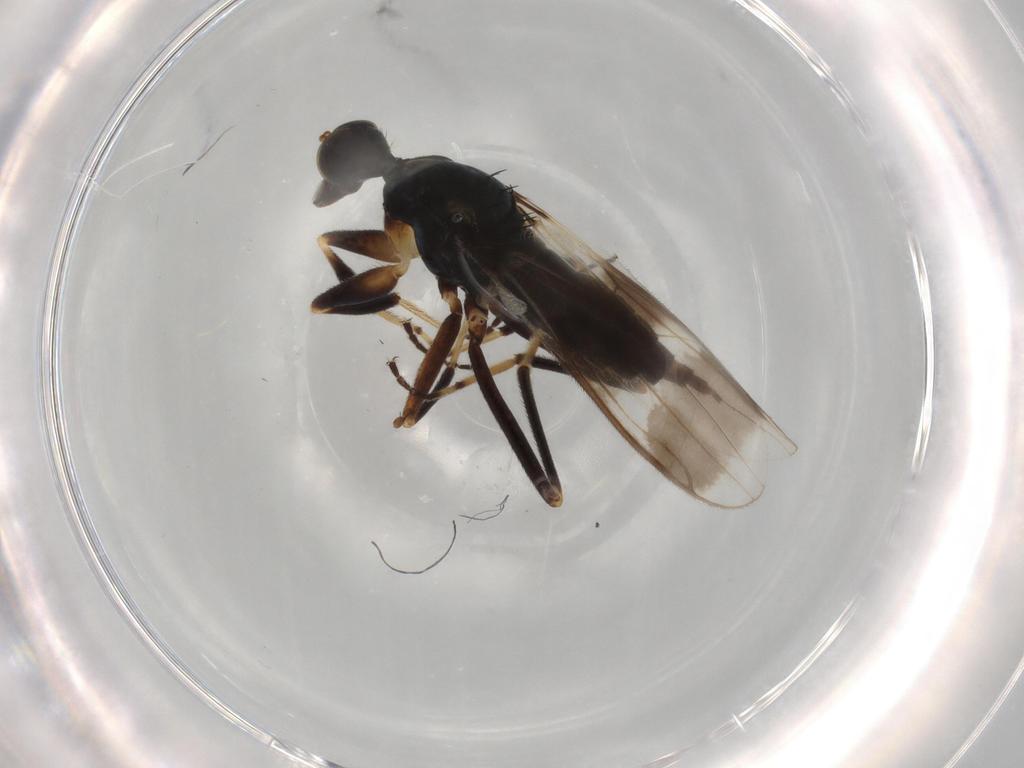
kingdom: Animalia
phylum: Arthropoda
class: Insecta
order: Diptera
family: Hybotidae
